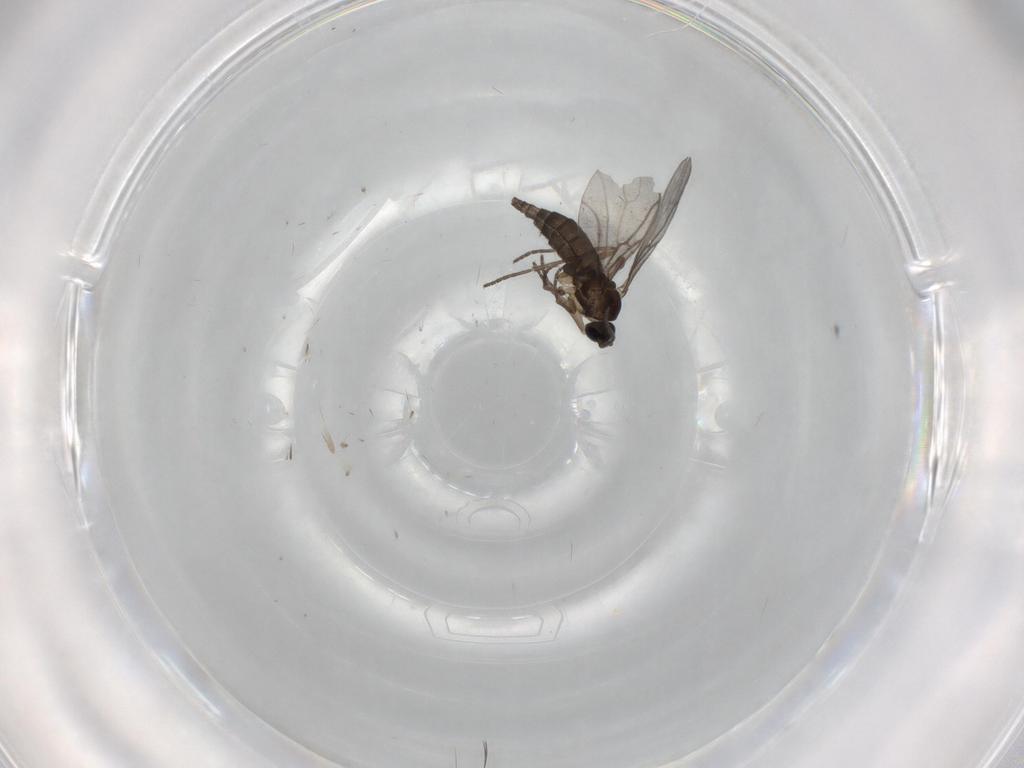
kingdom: Animalia
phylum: Arthropoda
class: Insecta
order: Diptera
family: Sciaridae
